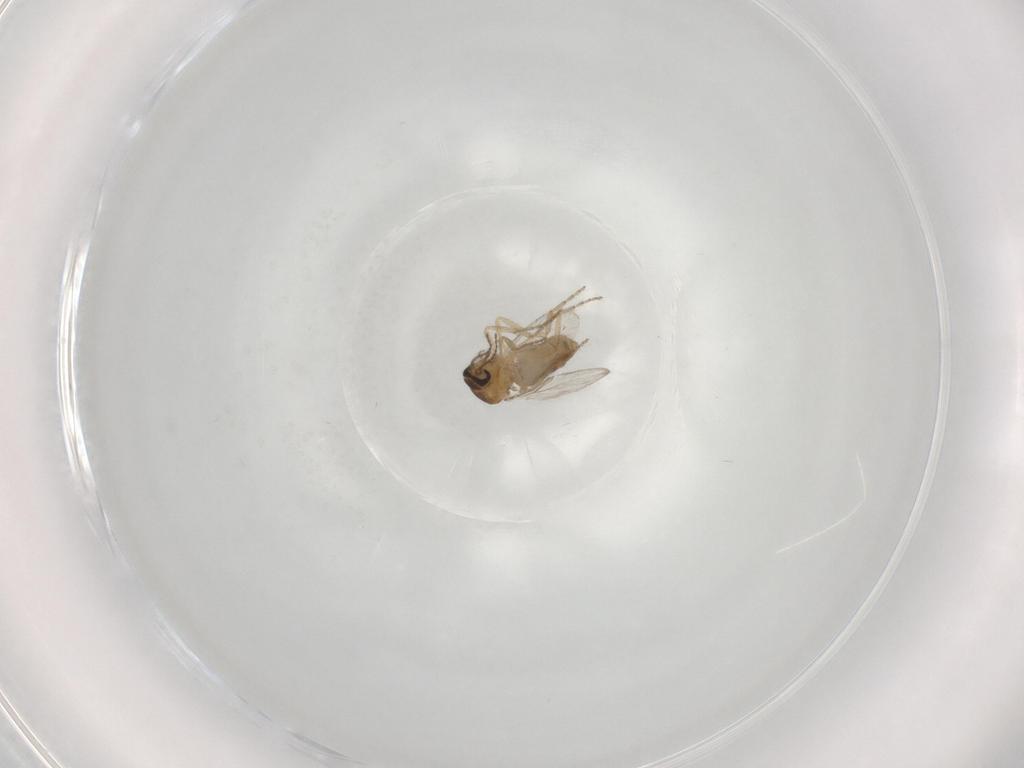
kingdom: Animalia
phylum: Arthropoda
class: Insecta
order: Diptera
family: Ceratopogonidae
